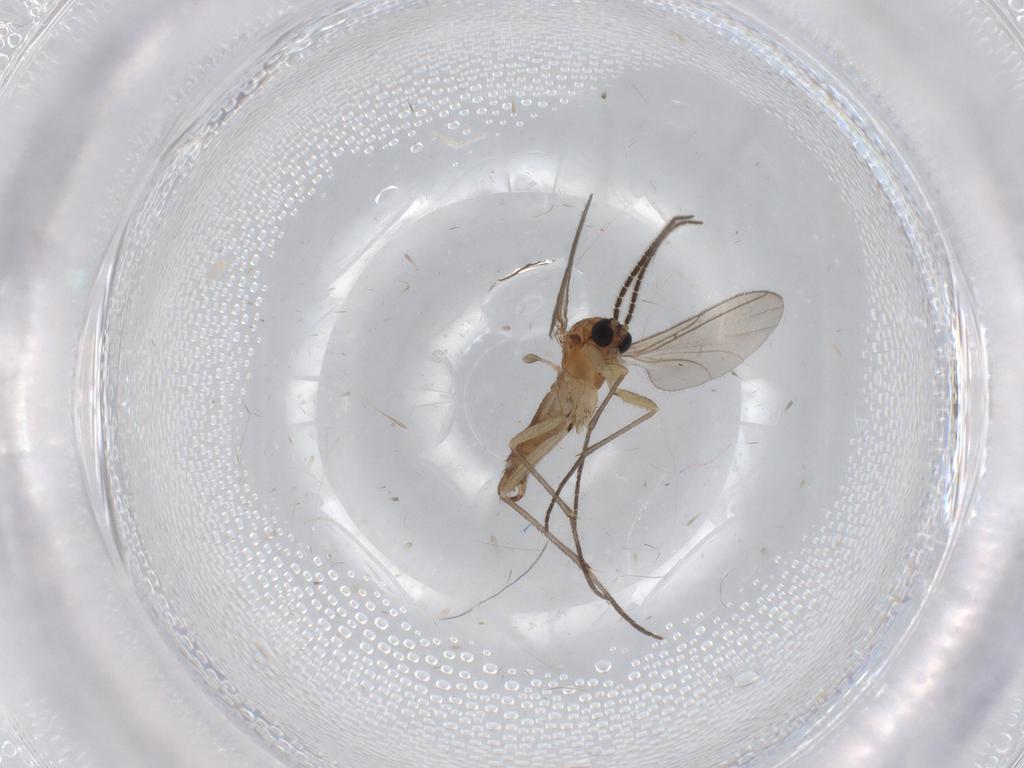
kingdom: Animalia
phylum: Arthropoda
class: Insecta
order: Diptera
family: Sciaridae
